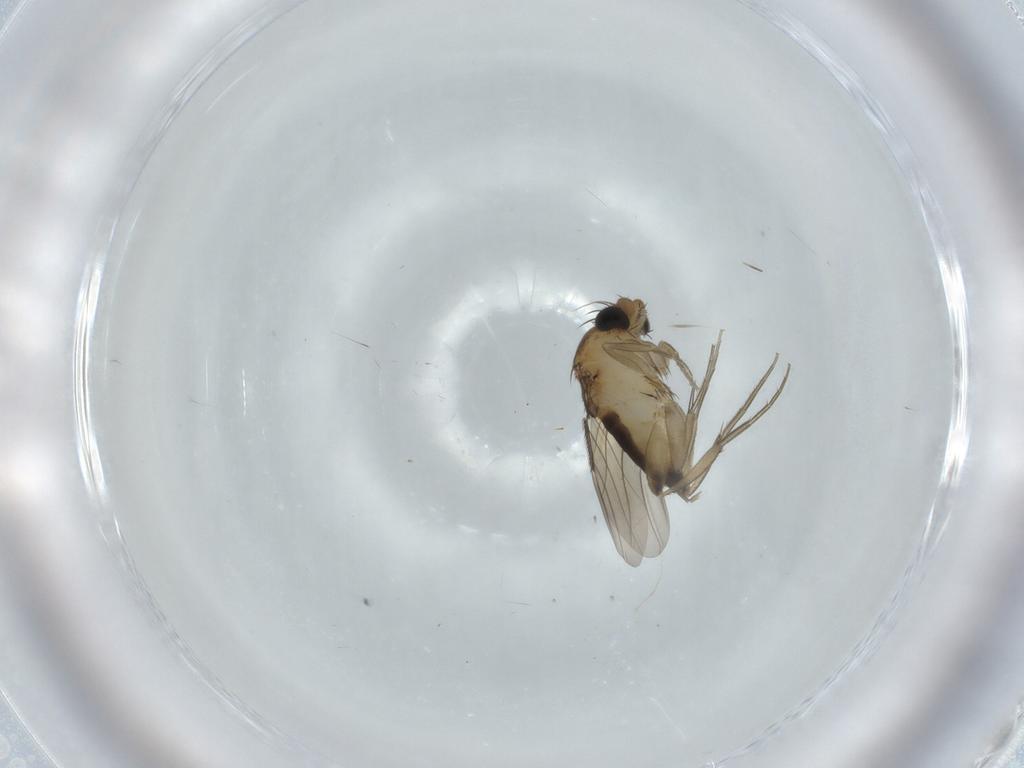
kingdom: Animalia
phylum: Arthropoda
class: Insecta
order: Diptera
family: Phoridae
